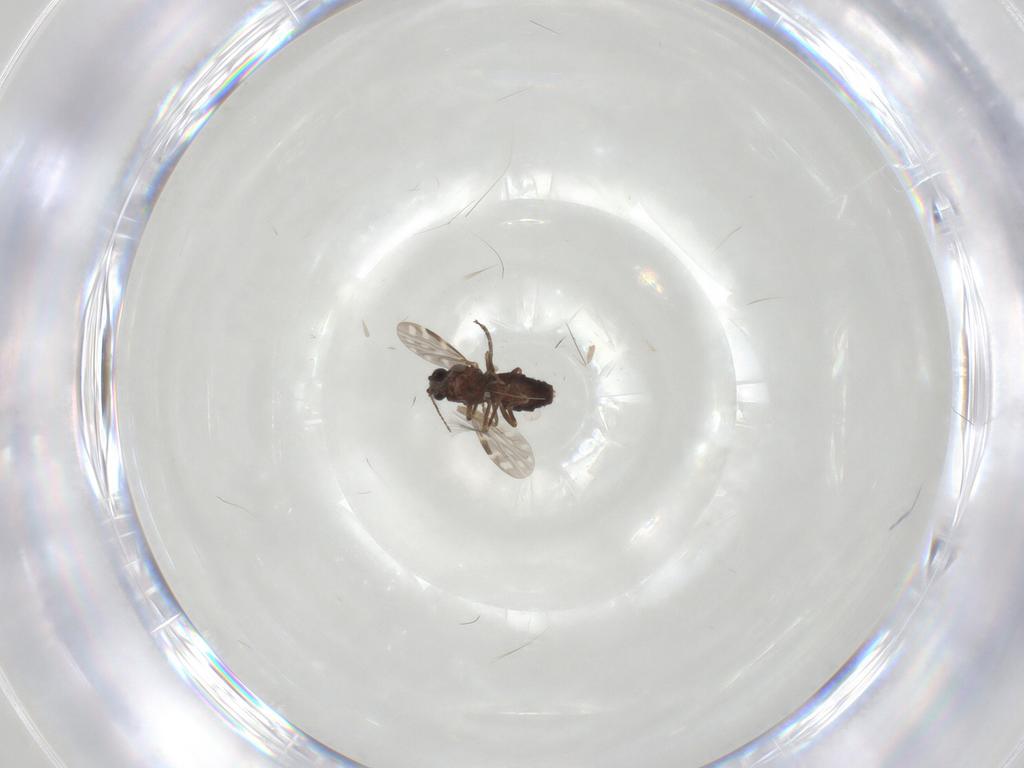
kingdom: Animalia
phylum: Arthropoda
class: Insecta
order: Diptera
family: Sciaridae
